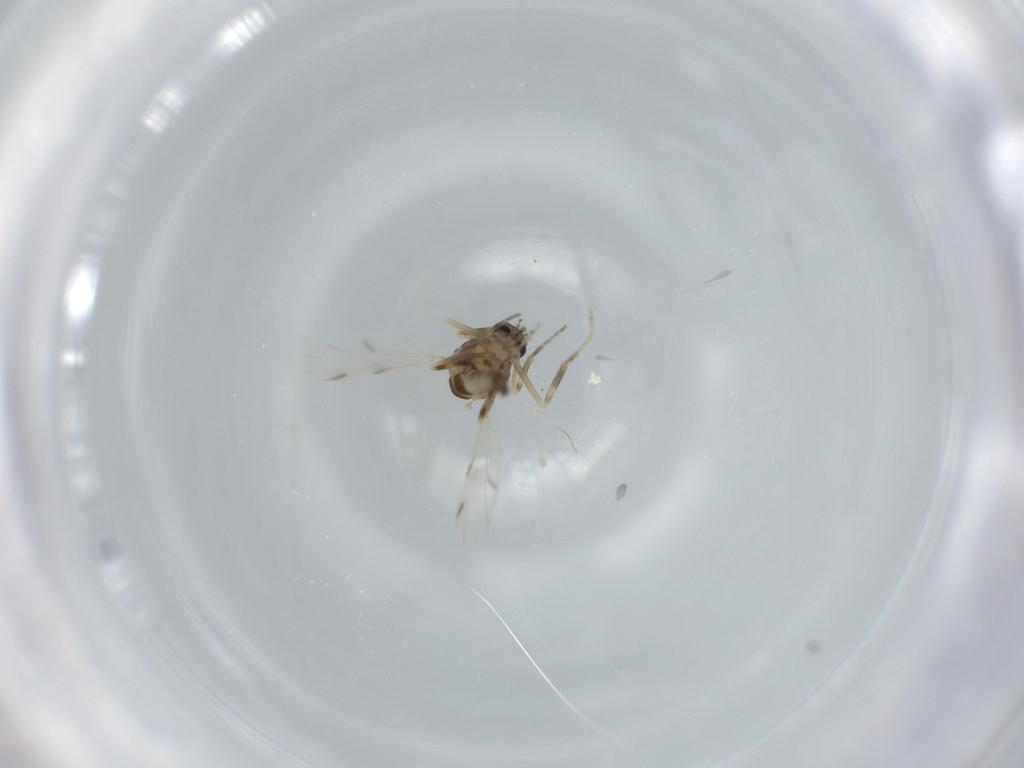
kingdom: Animalia
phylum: Arthropoda
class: Insecta
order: Diptera
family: Ceratopogonidae
